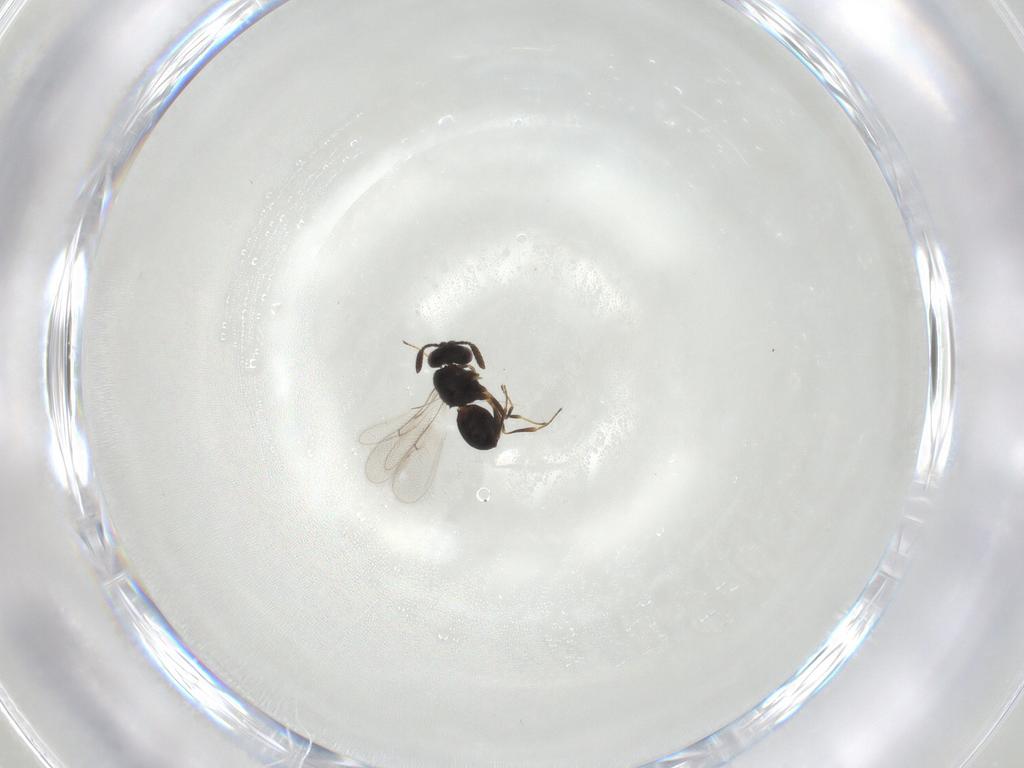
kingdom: Animalia
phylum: Arthropoda
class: Insecta
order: Hymenoptera
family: Scelionidae
